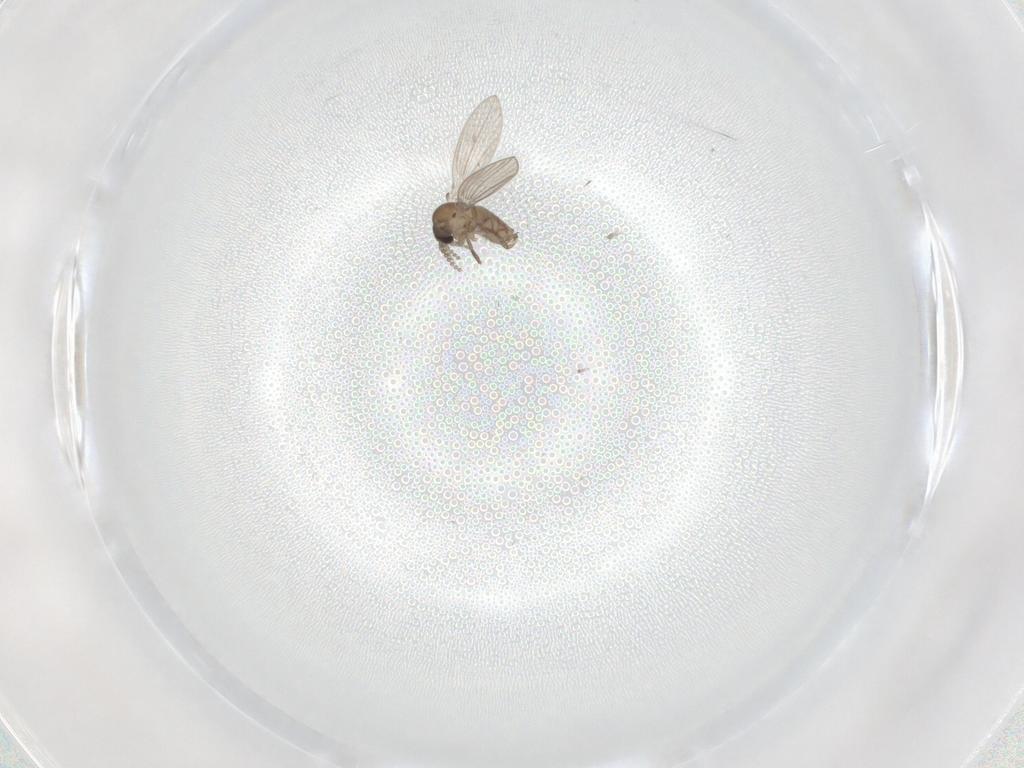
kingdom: Animalia
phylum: Arthropoda
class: Insecta
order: Diptera
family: Psychodidae
